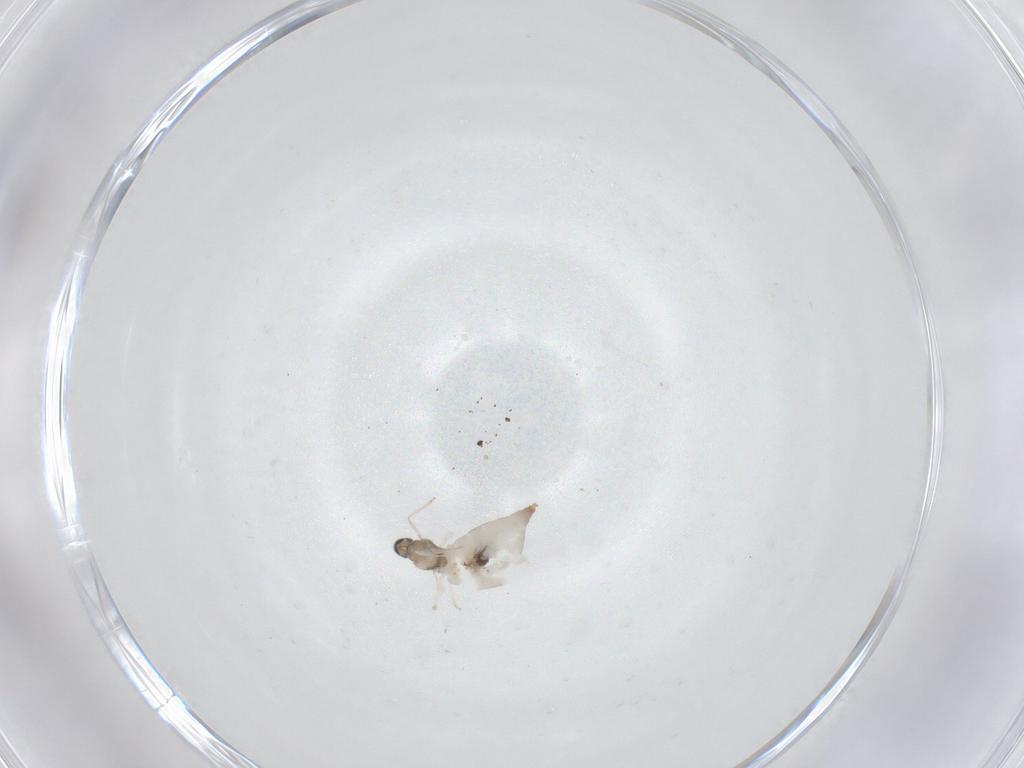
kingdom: Animalia
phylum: Arthropoda
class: Insecta
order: Diptera
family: Cecidomyiidae
